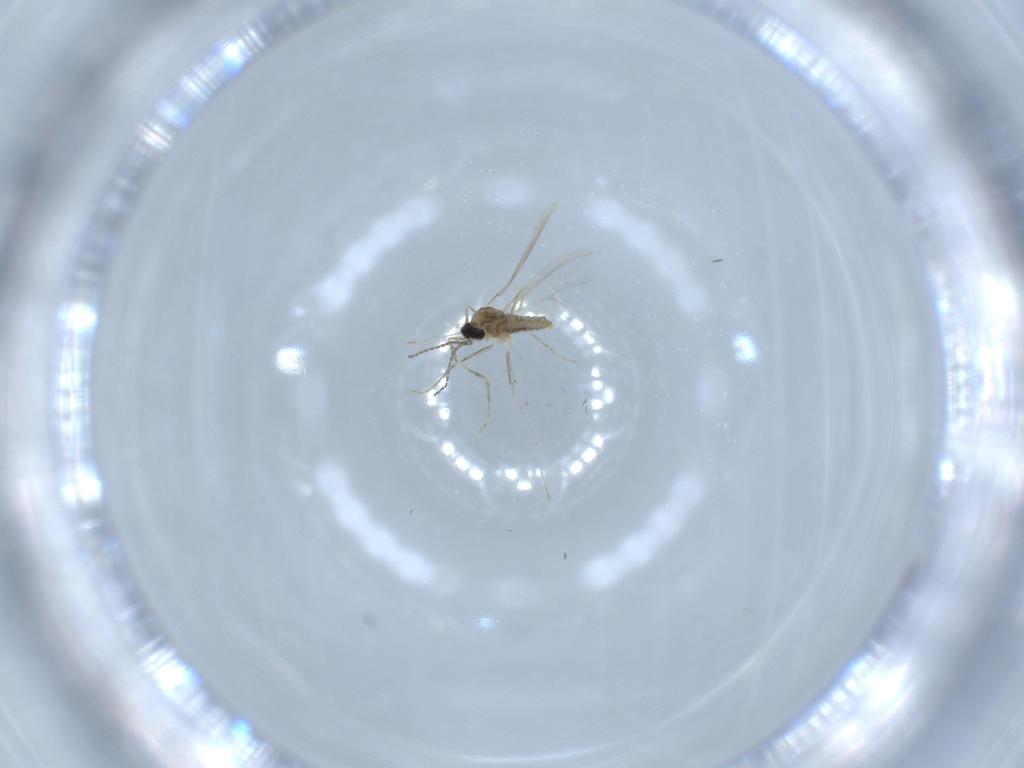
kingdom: Animalia
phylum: Arthropoda
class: Insecta
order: Diptera
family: Cecidomyiidae
